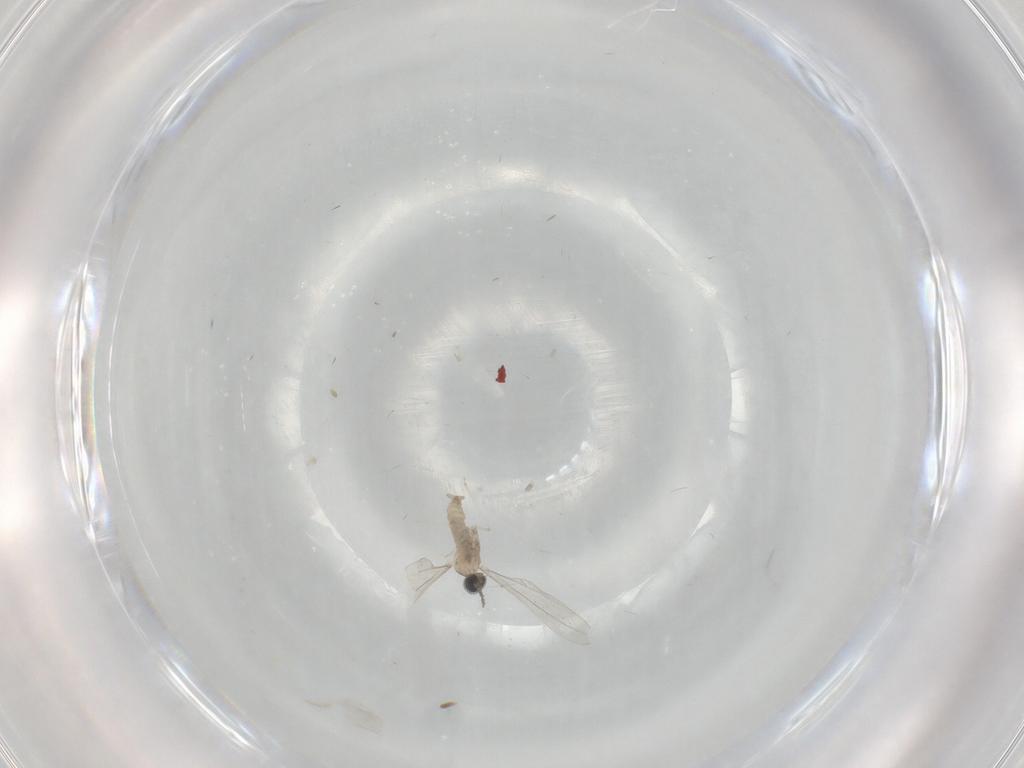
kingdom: Animalia
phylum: Arthropoda
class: Insecta
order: Diptera
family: Cecidomyiidae
